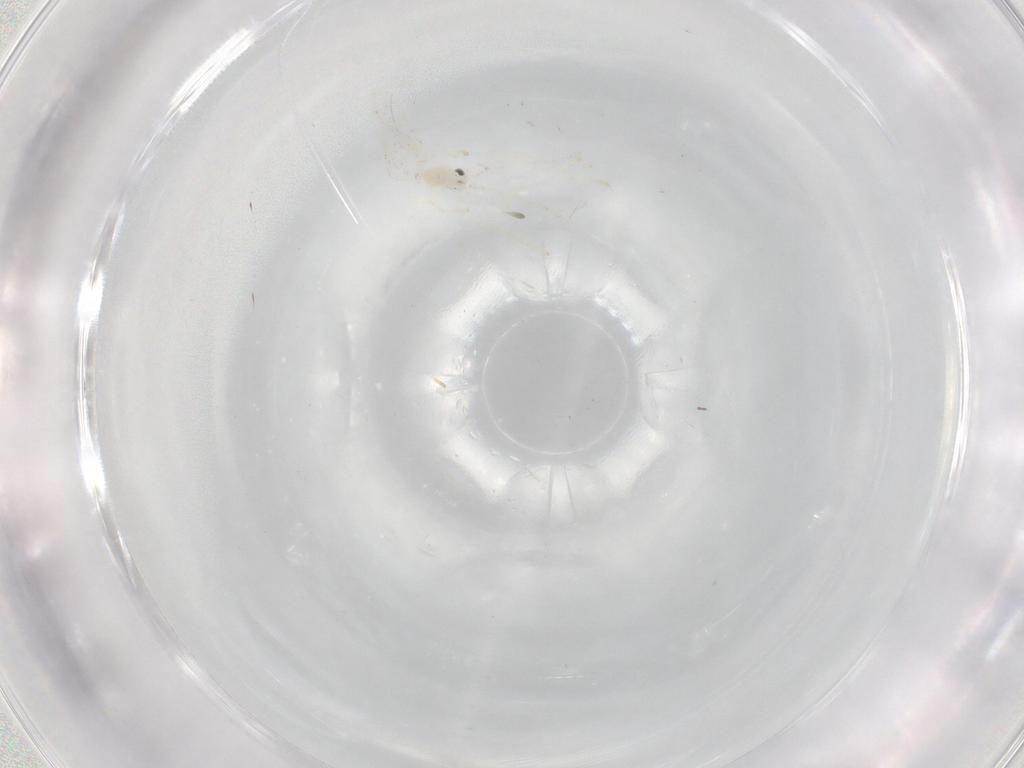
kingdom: Animalia
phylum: Arthropoda
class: Insecta
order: Diptera
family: Cecidomyiidae
